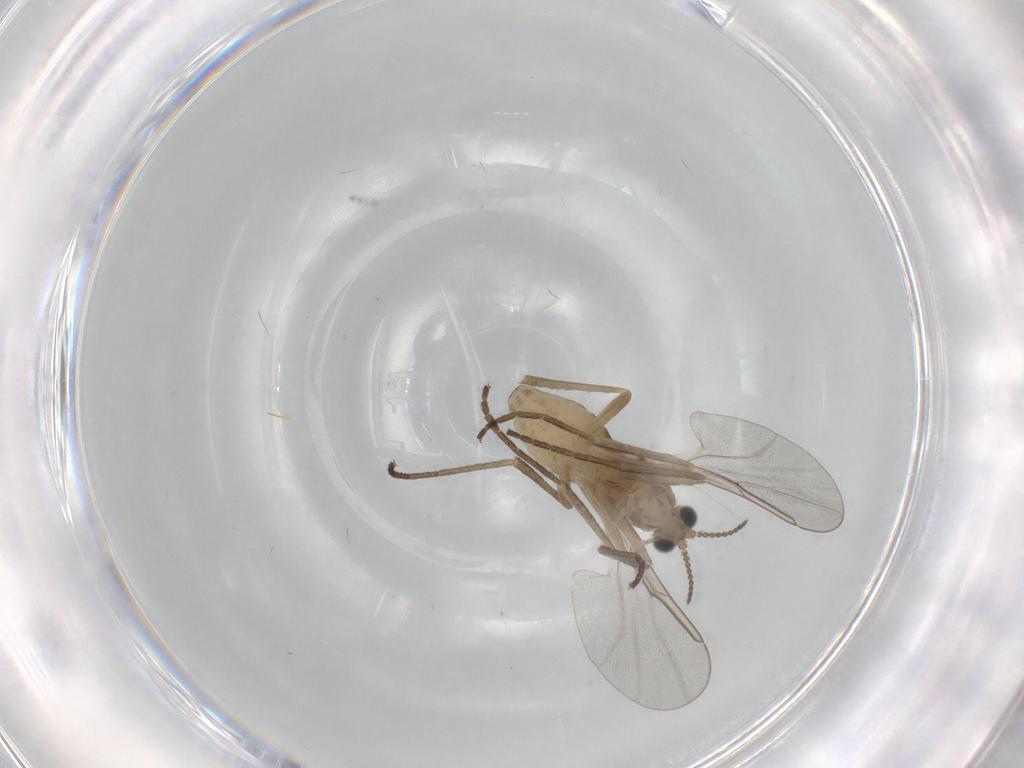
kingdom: Animalia
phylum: Arthropoda
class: Insecta
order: Diptera
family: Cecidomyiidae
